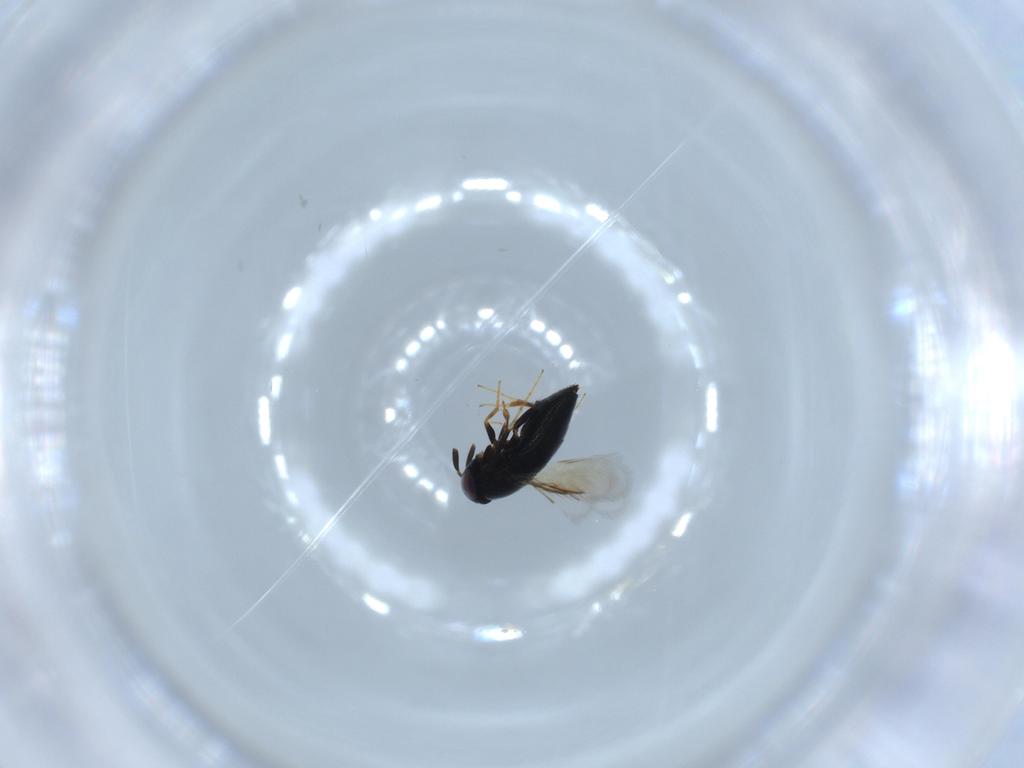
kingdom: Animalia
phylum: Arthropoda
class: Insecta
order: Hymenoptera
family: Signiphoridae
